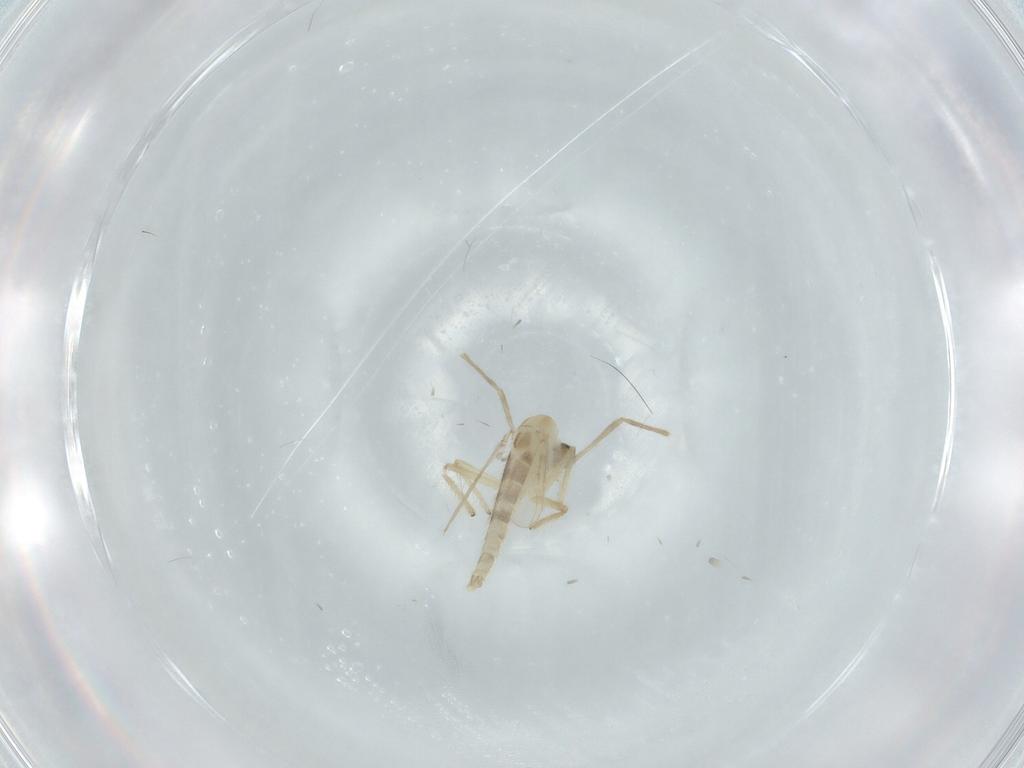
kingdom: Animalia
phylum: Arthropoda
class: Insecta
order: Diptera
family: Chironomidae
